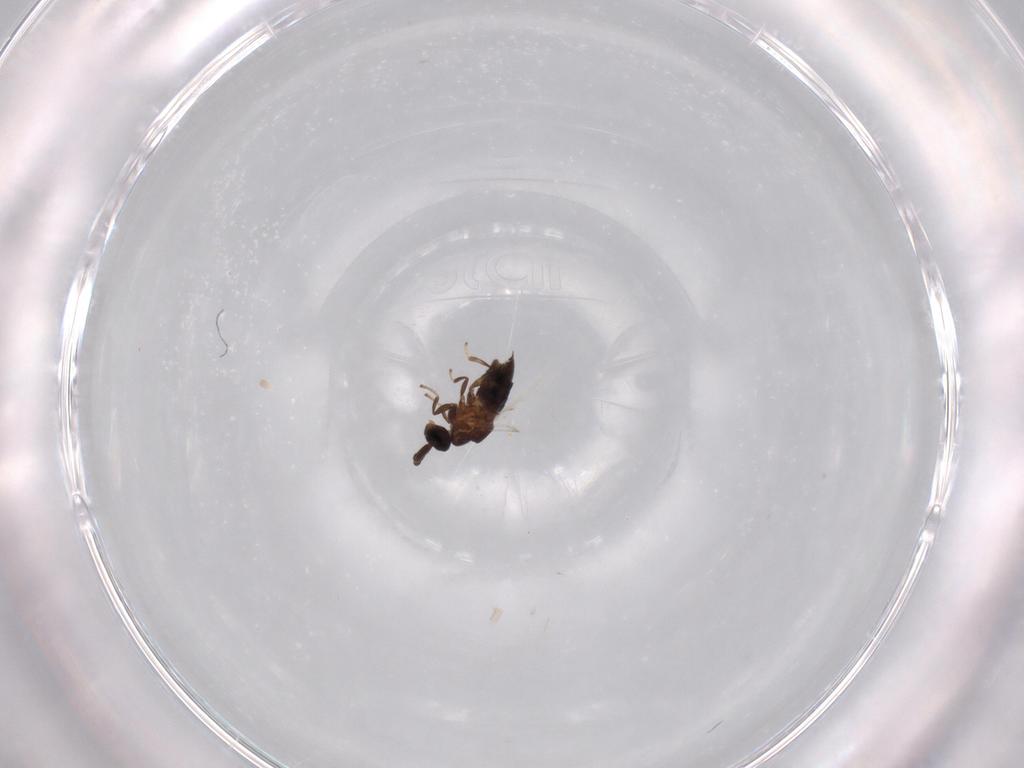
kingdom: Animalia
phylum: Arthropoda
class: Insecta
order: Diptera
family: Scatopsidae
